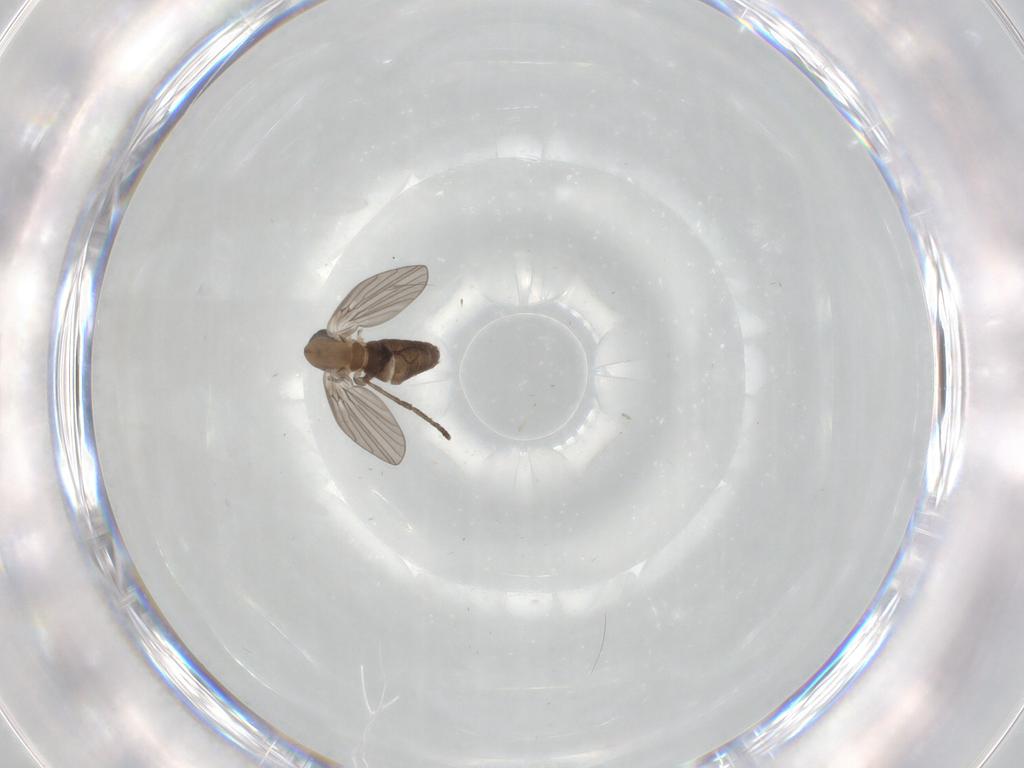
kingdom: Animalia
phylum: Arthropoda
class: Insecta
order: Diptera
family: Psychodidae
